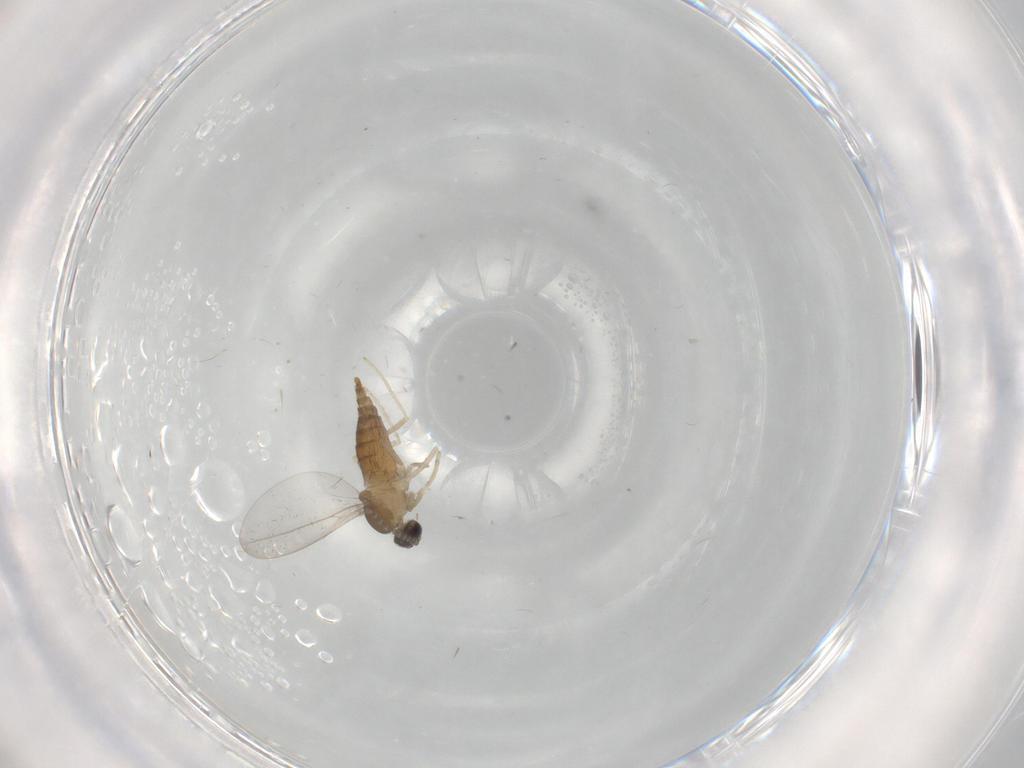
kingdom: Animalia
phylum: Arthropoda
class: Insecta
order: Diptera
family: Cecidomyiidae
